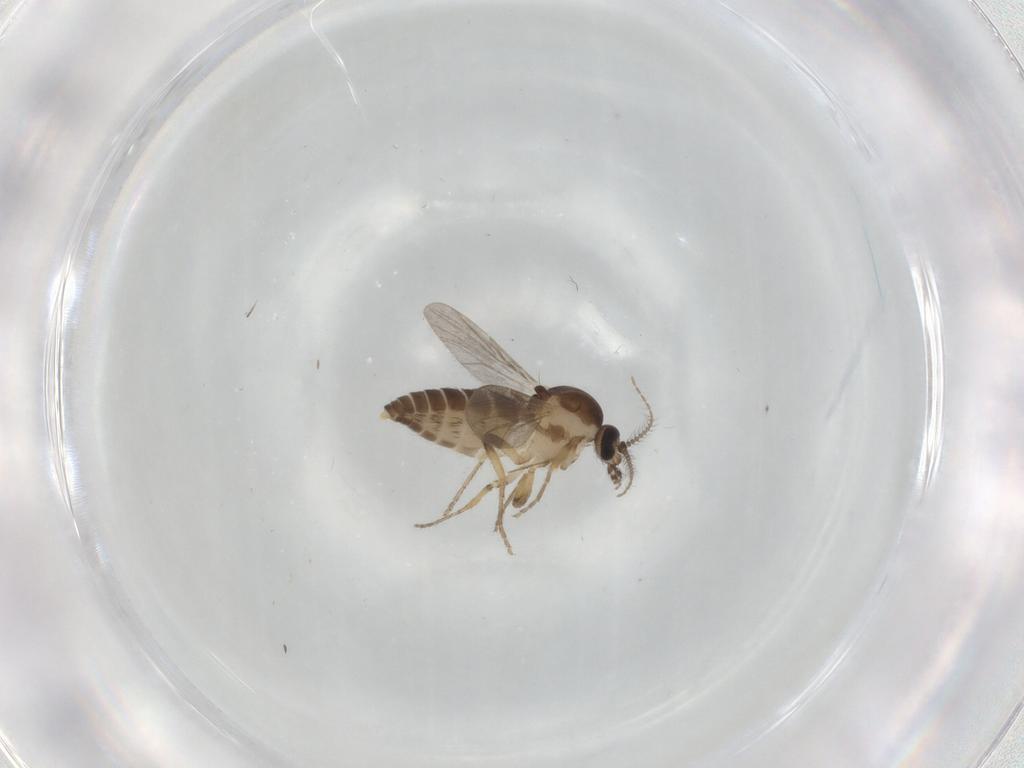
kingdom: Animalia
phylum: Arthropoda
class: Insecta
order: Diptera
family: Ceratopogonidae
